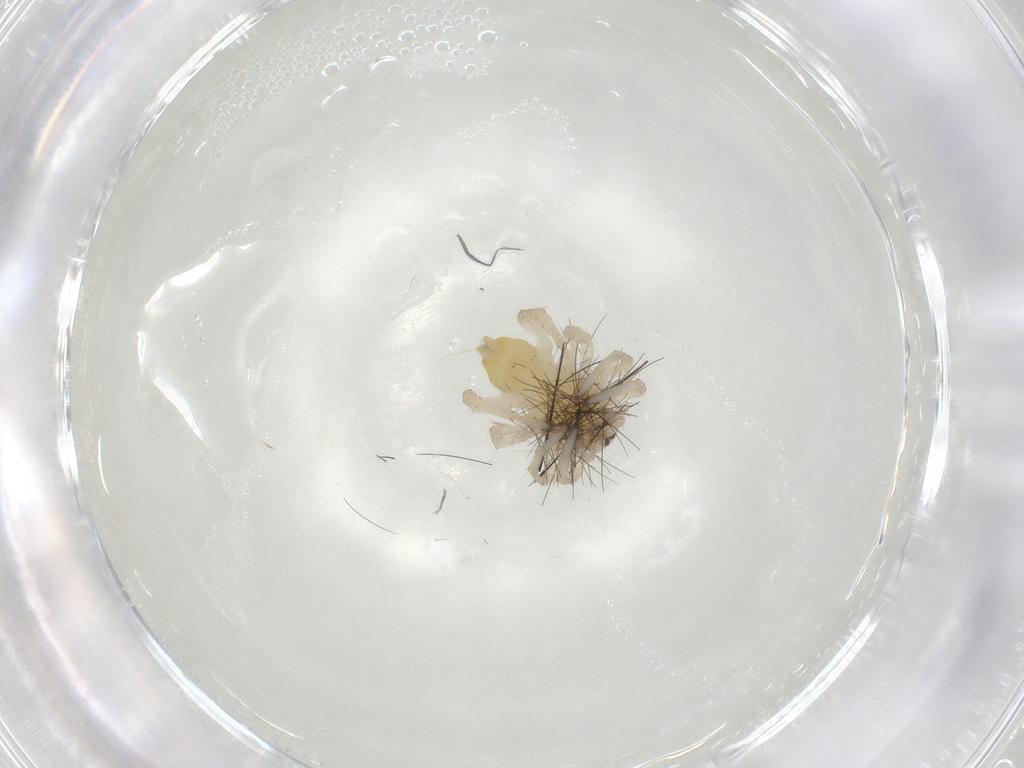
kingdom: Animalia
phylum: Arthropoda
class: Arachnida
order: Araneae
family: Clubionidae
